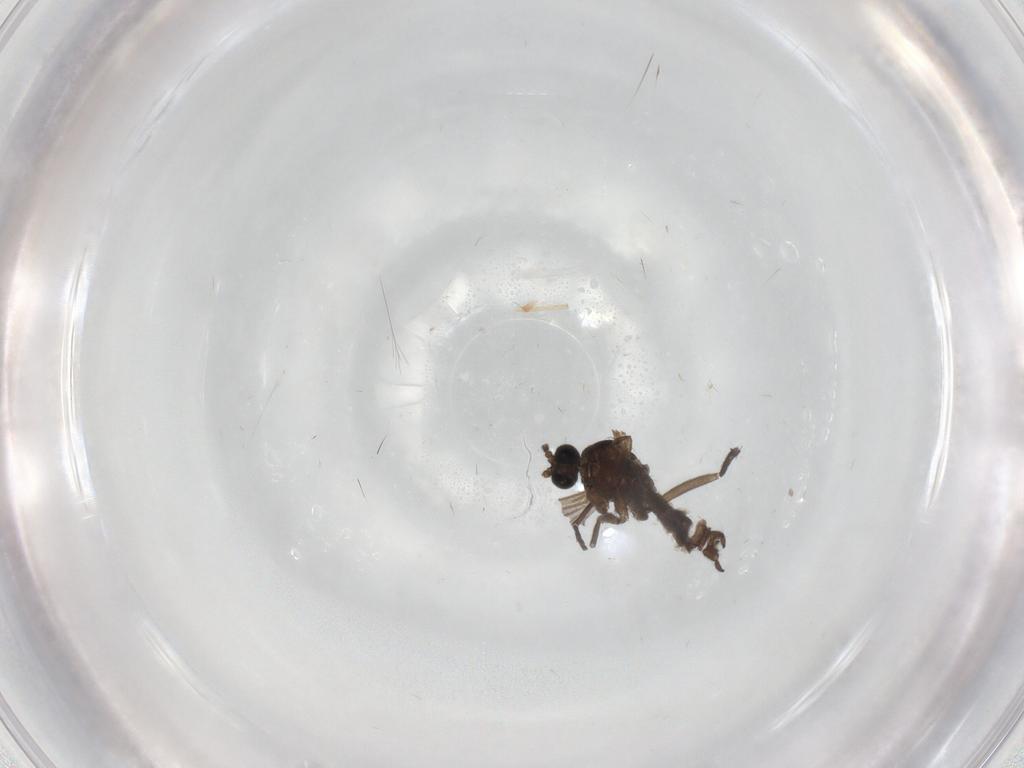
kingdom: Animalia
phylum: Arthropoda
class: Insecta
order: Diptera
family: Sciaridae
